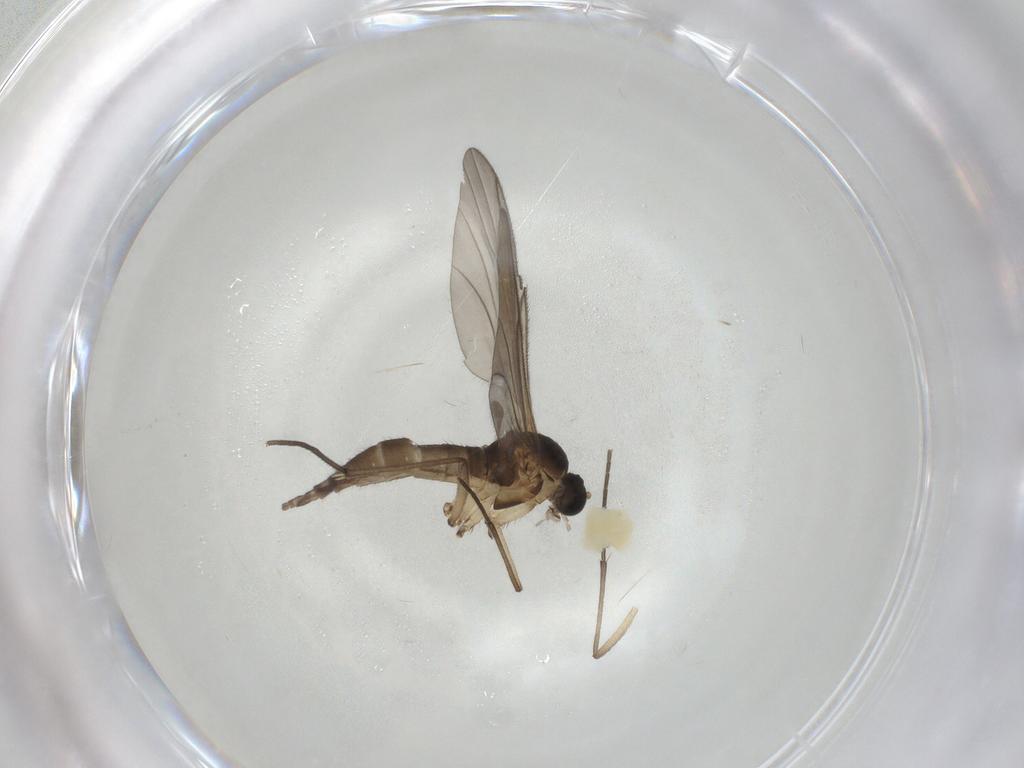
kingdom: Animalia
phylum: Arthropoda
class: Insecta
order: Diptera
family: Sciaridae
